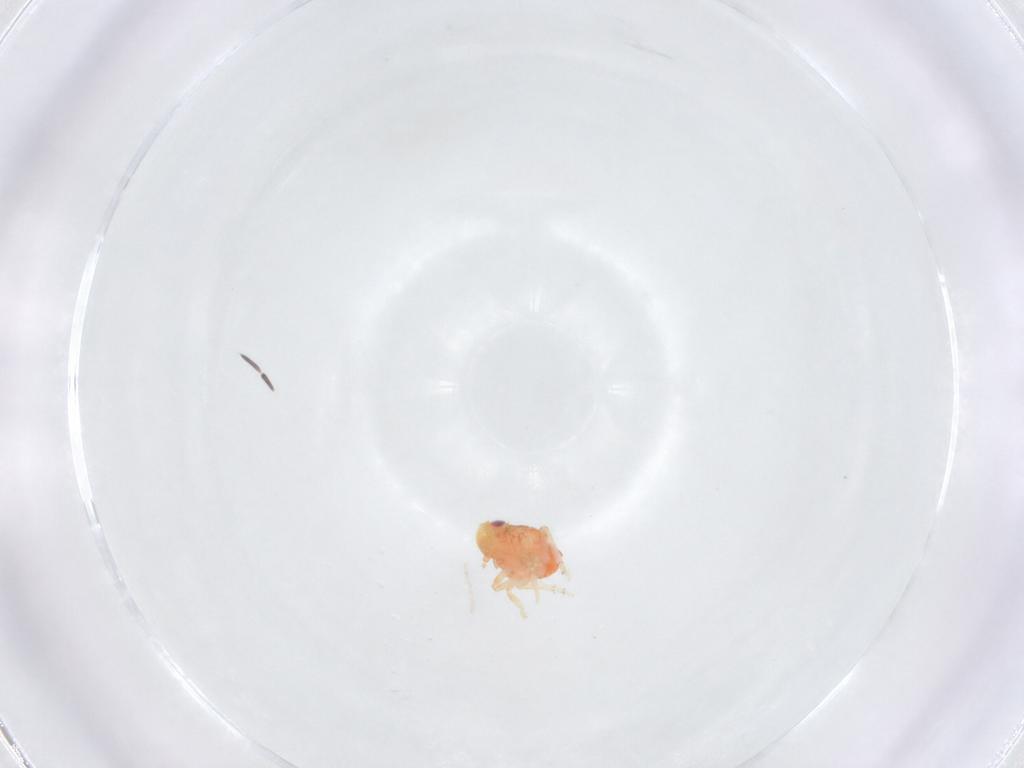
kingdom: Animalia
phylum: Arthropoda
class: Insecta
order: Hemiptera
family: Issidae
